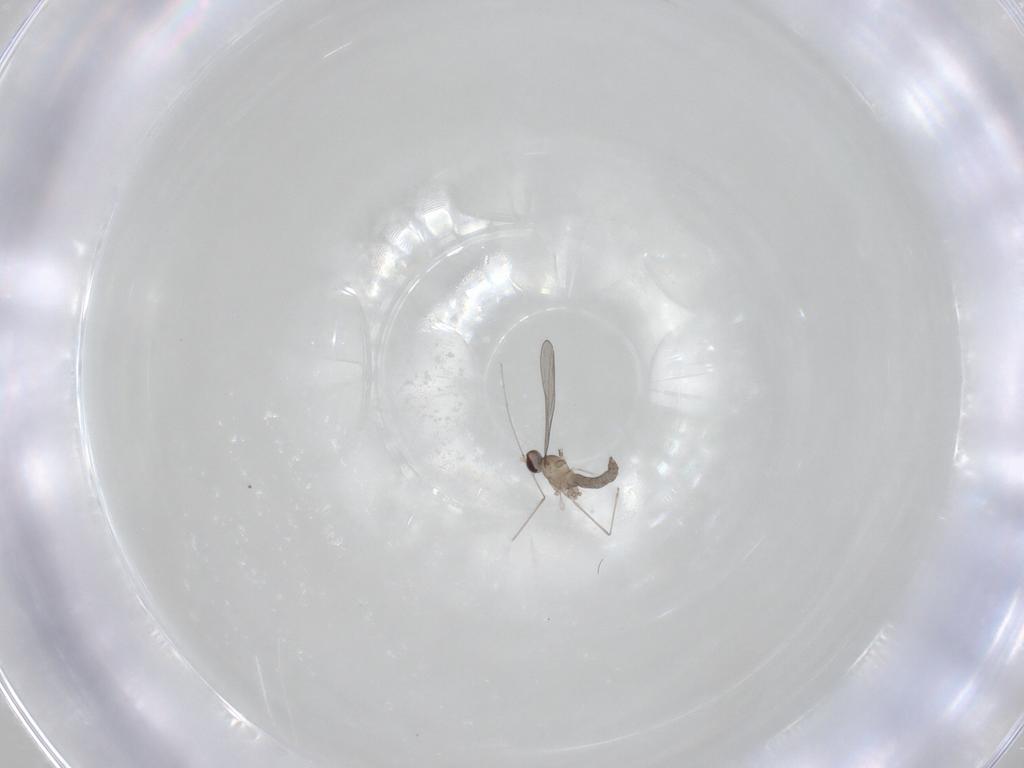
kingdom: Animalia
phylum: Arthropoda
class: Insecta
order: Diptera
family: Cecidomyiidae
